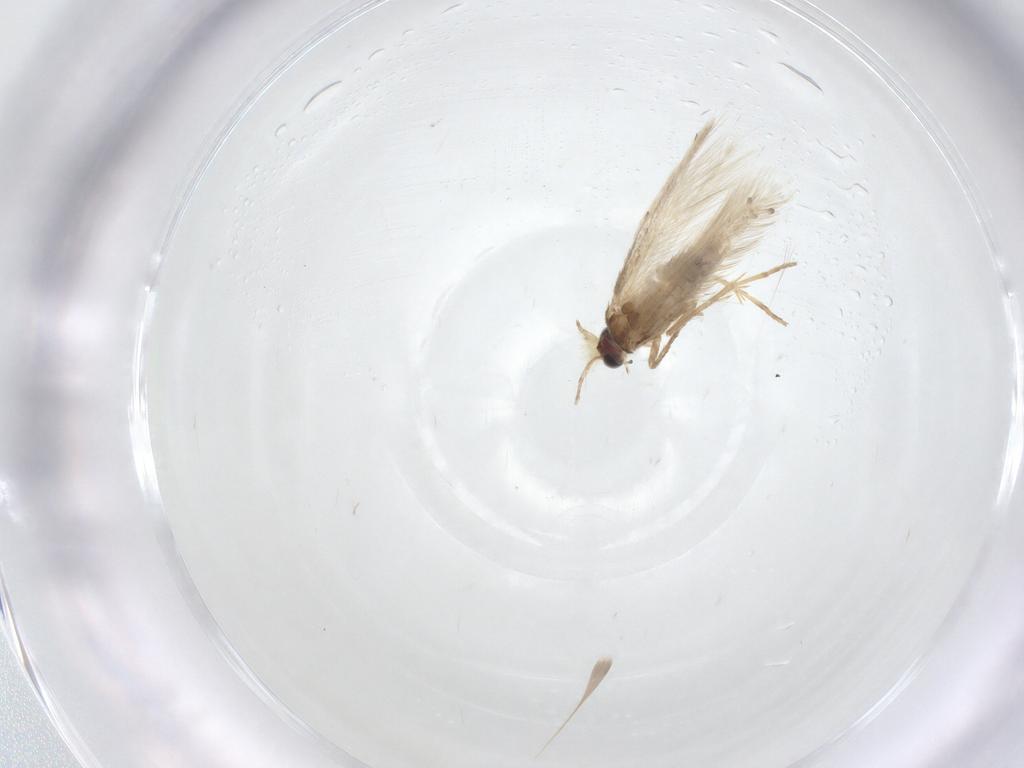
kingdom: Animalia
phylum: Arthropoda
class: Insecta
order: Lepidoptera
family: Nepticulidae
